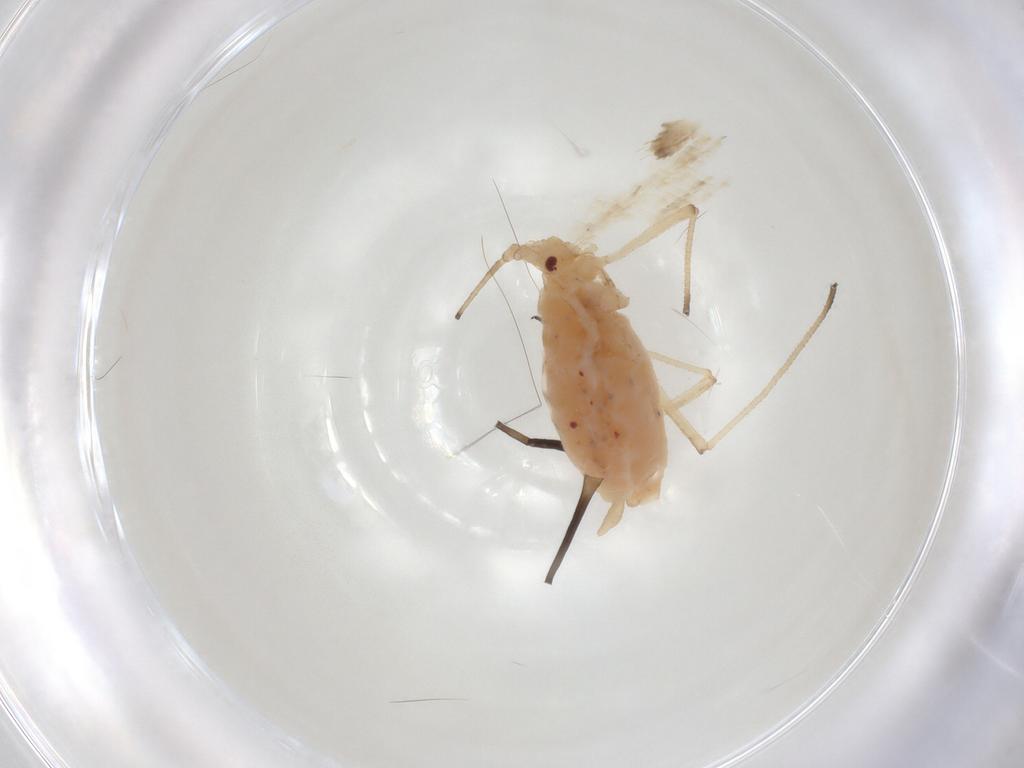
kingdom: Animalia
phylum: Arthropoda
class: Insecta
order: Hemiptera
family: Aphididae
